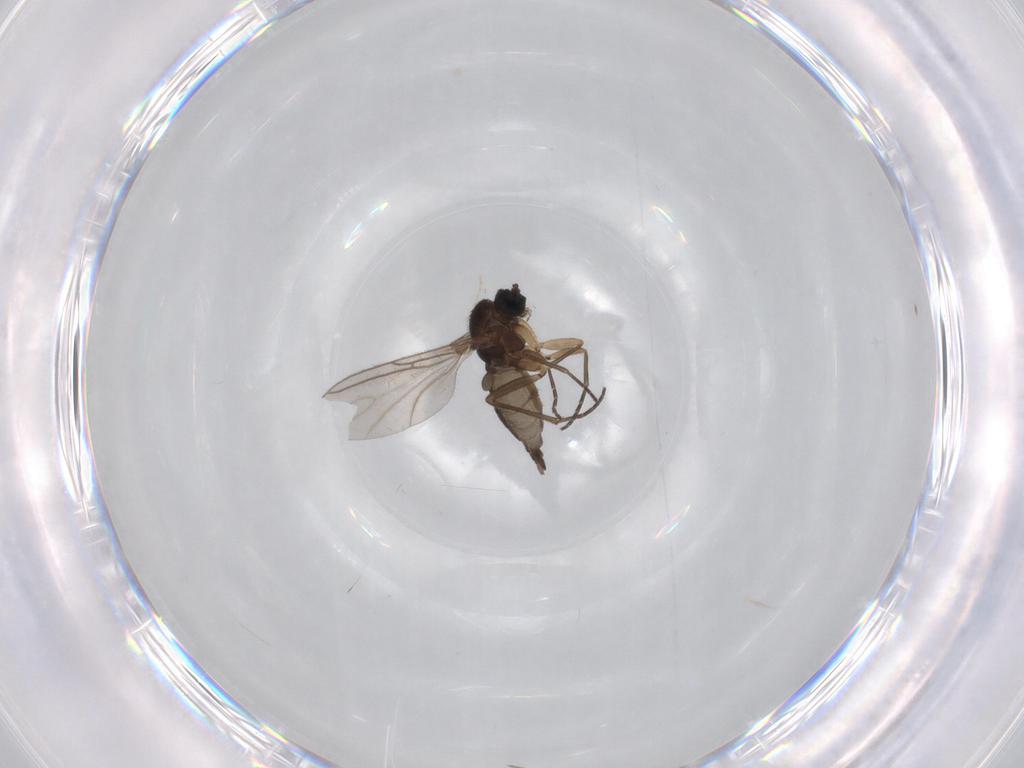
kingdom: Animalia
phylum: Arthropoda
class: Insecta
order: Diptera
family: Sciaridae
